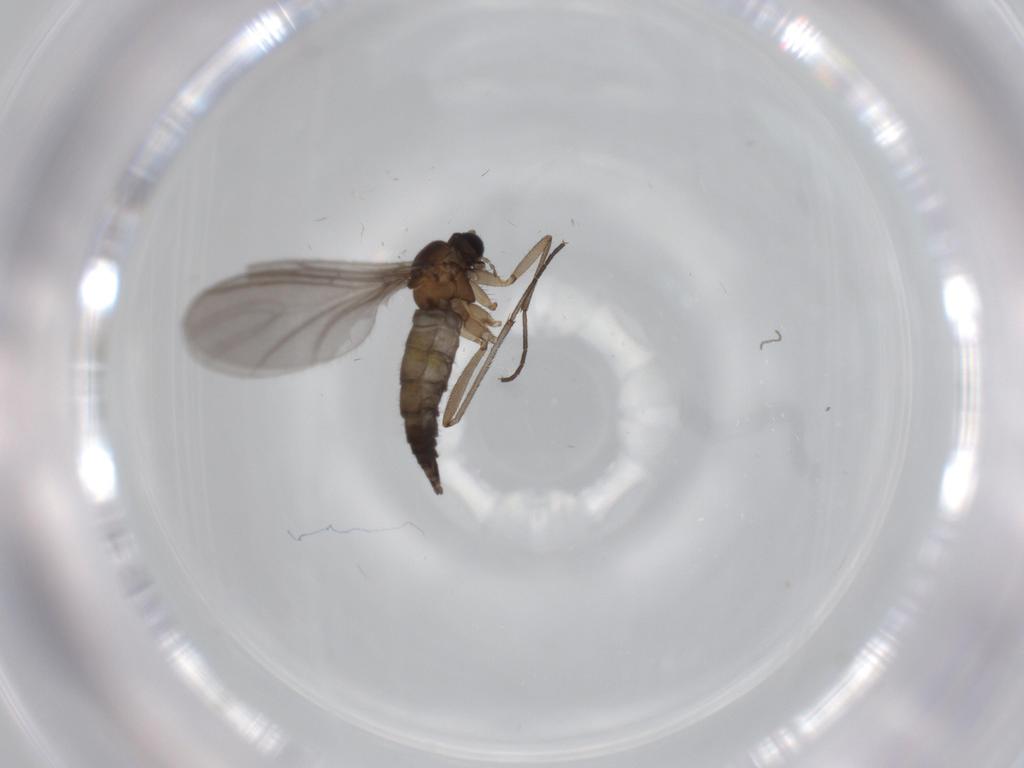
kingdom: Animalia
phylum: Arthropoda
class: Insecta
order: Diptera
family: Sciaridae
